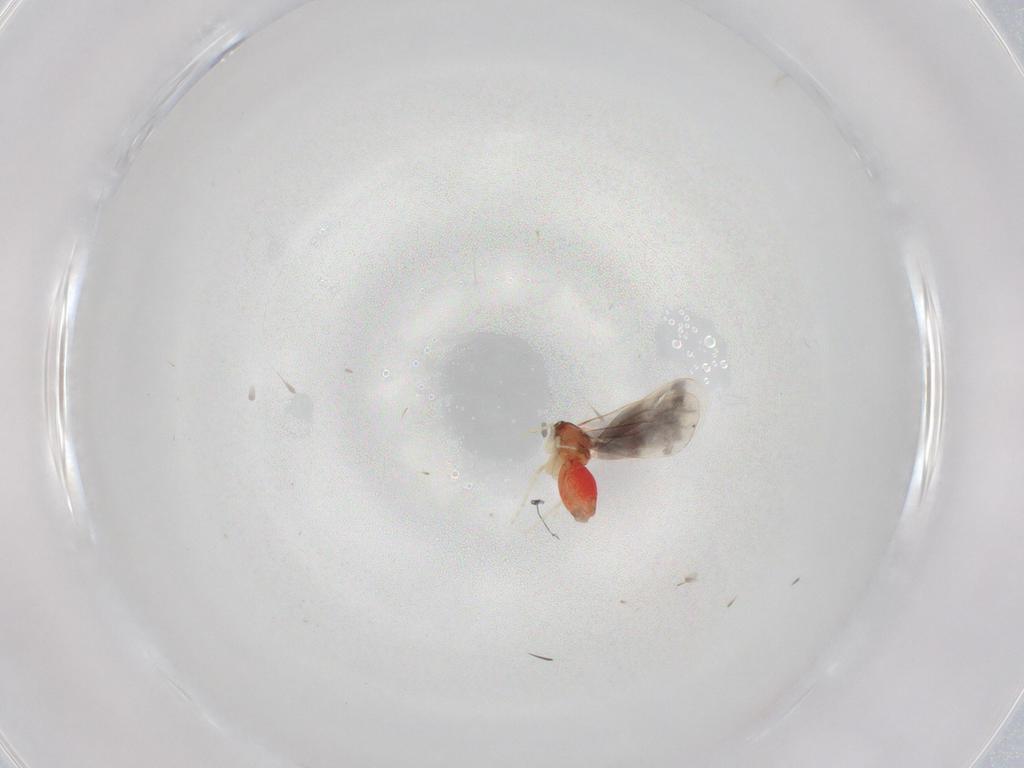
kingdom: Animalia
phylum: Arthropoda
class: Insecta
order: Hemiptera
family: Aleyrodidae
